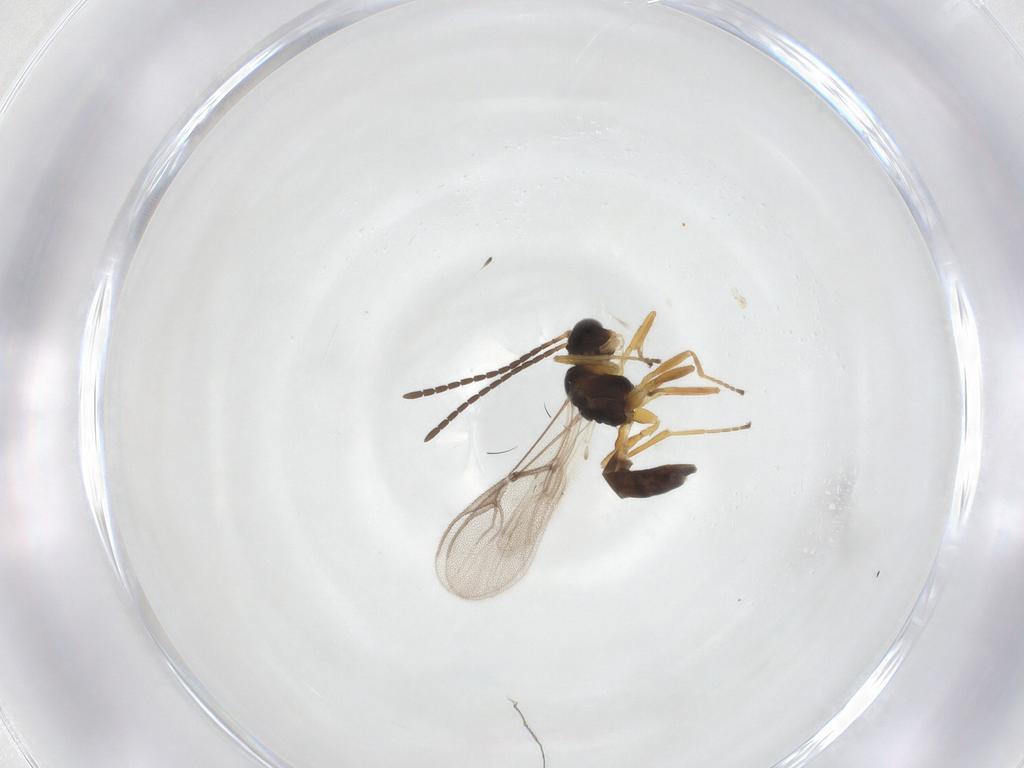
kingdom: Animalia
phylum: Arthropoda
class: Insecta
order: Hymenoptera
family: Braconidae
